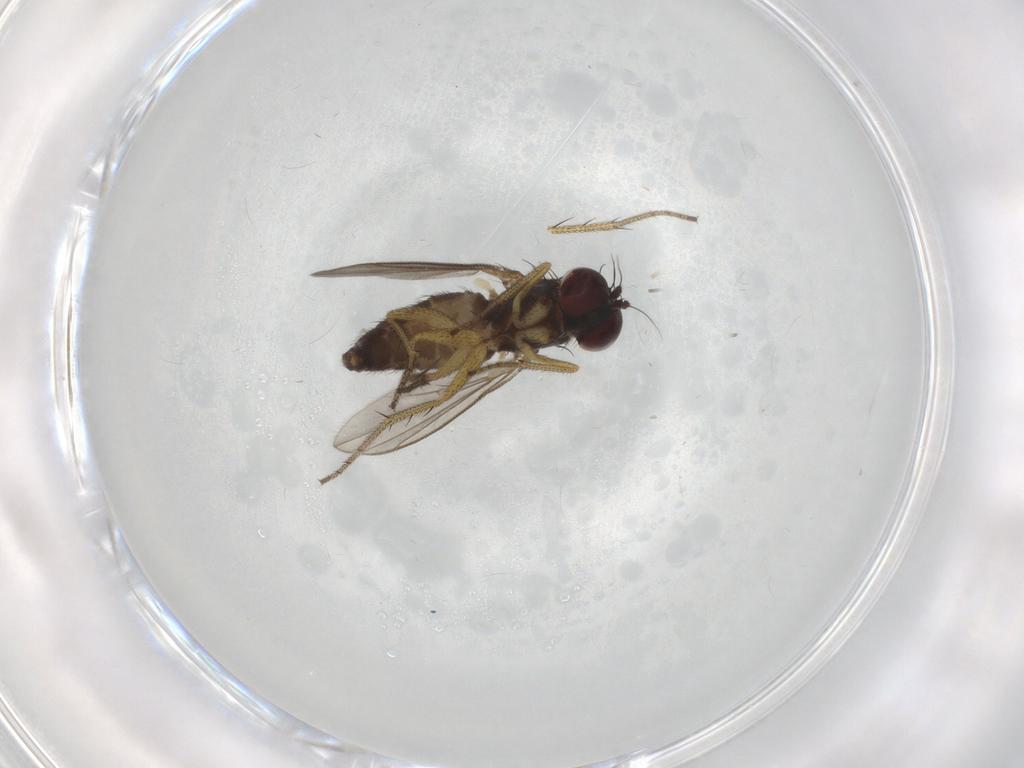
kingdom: Animalia
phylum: Arthropoda
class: Insecta
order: Diptera
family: Dolichopodidae
